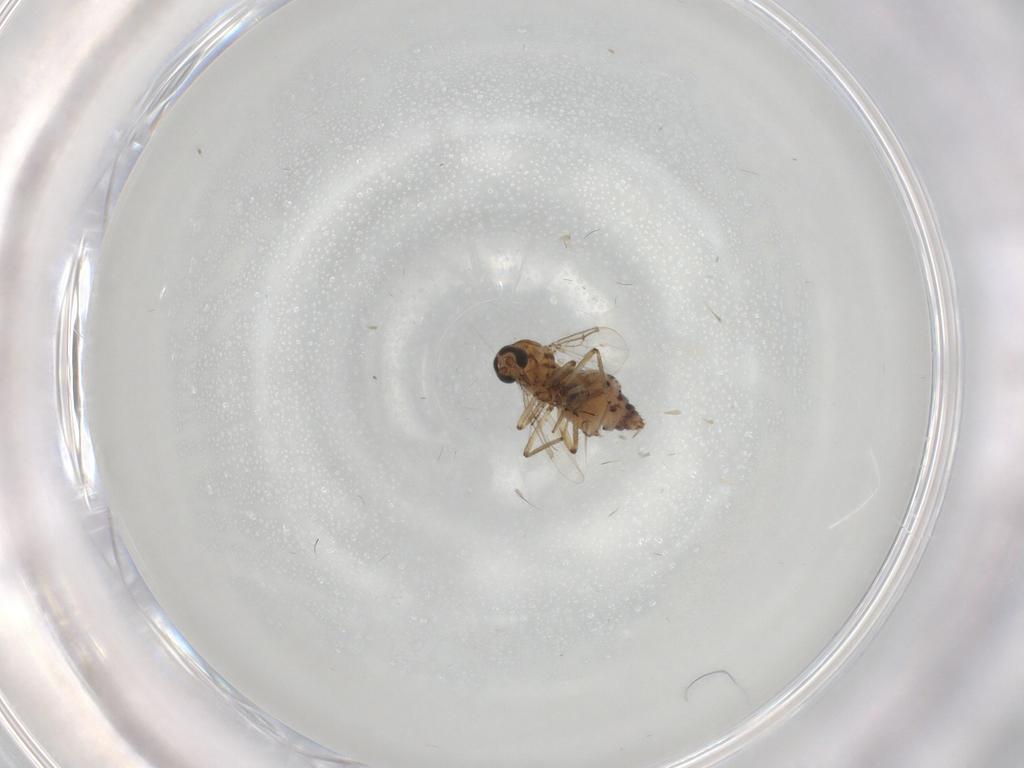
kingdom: Animalia
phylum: Arthropoda
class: Insecta
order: Diptera
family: Ceratopogonidae
